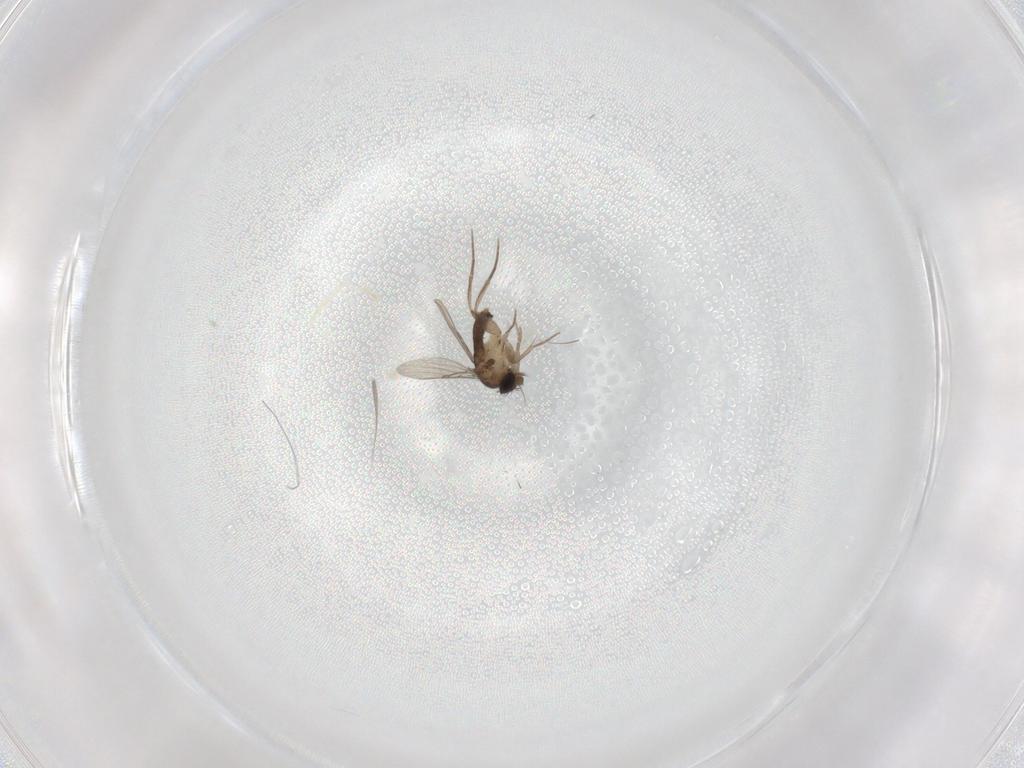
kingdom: Animalia
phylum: Arthropoda
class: Insecta
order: Diptera
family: Phoridae
